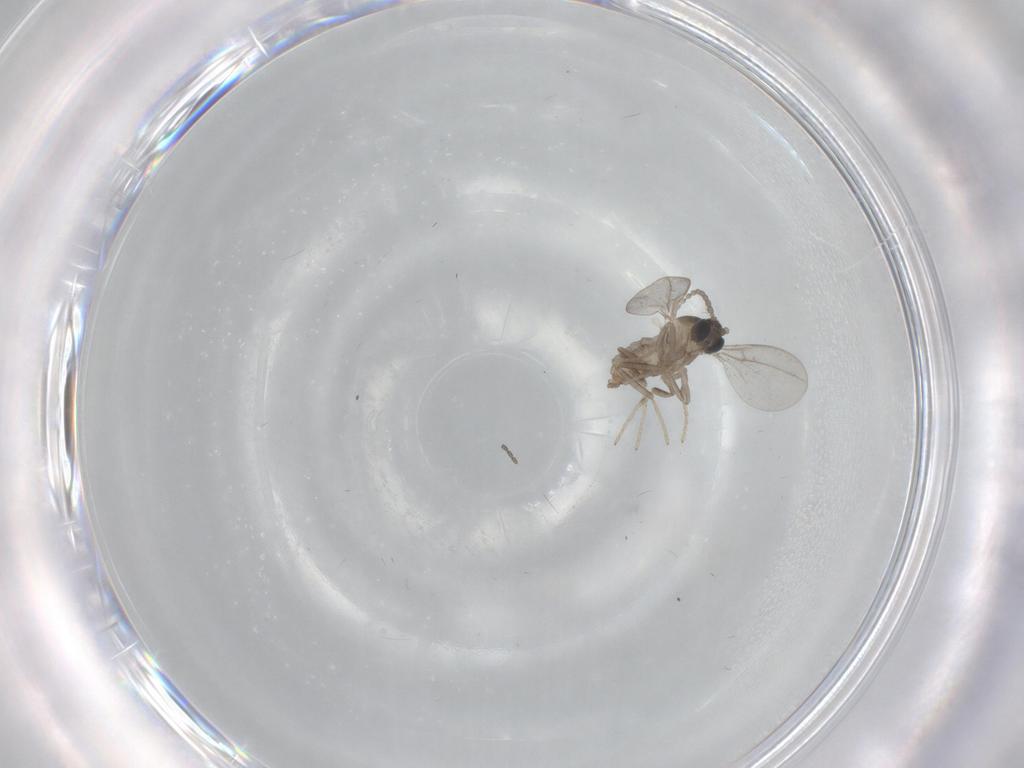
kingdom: Animalia
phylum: Arthropoda
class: Insecta
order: Diptera
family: Cecidomyiidae
